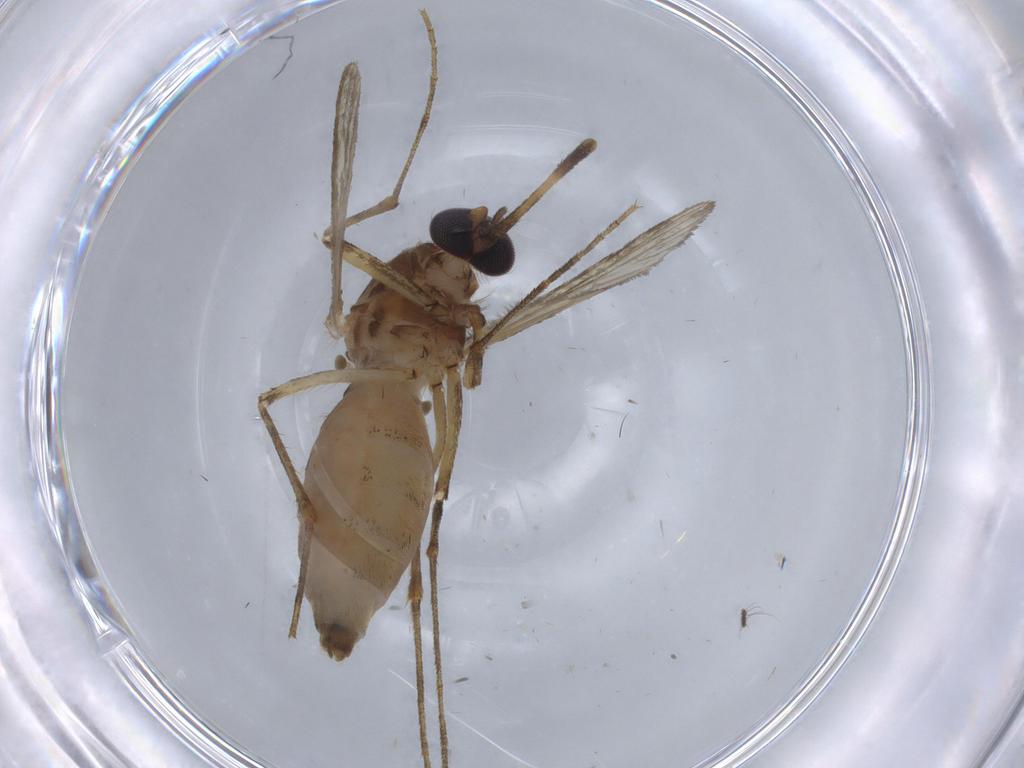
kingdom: Animalia
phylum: Arthropoda
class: Insecta
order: Diptera
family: Culicidae
